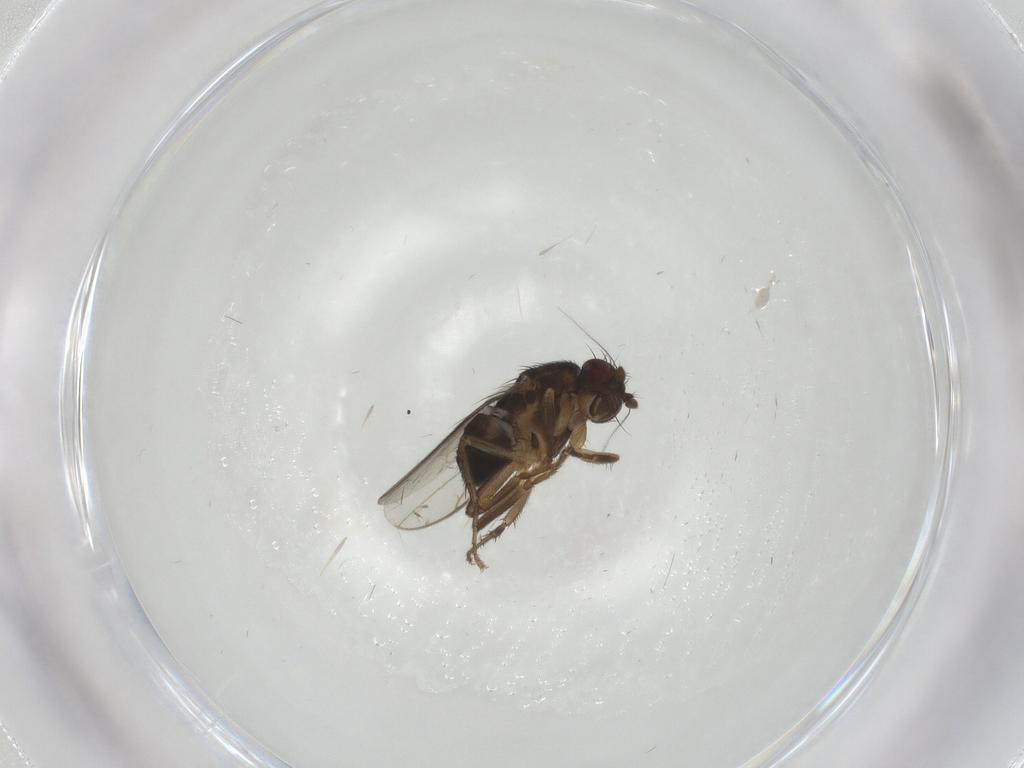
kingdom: Animalia
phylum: Arthropoda
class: Insecta
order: Diptera
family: Sphaeroceridae
